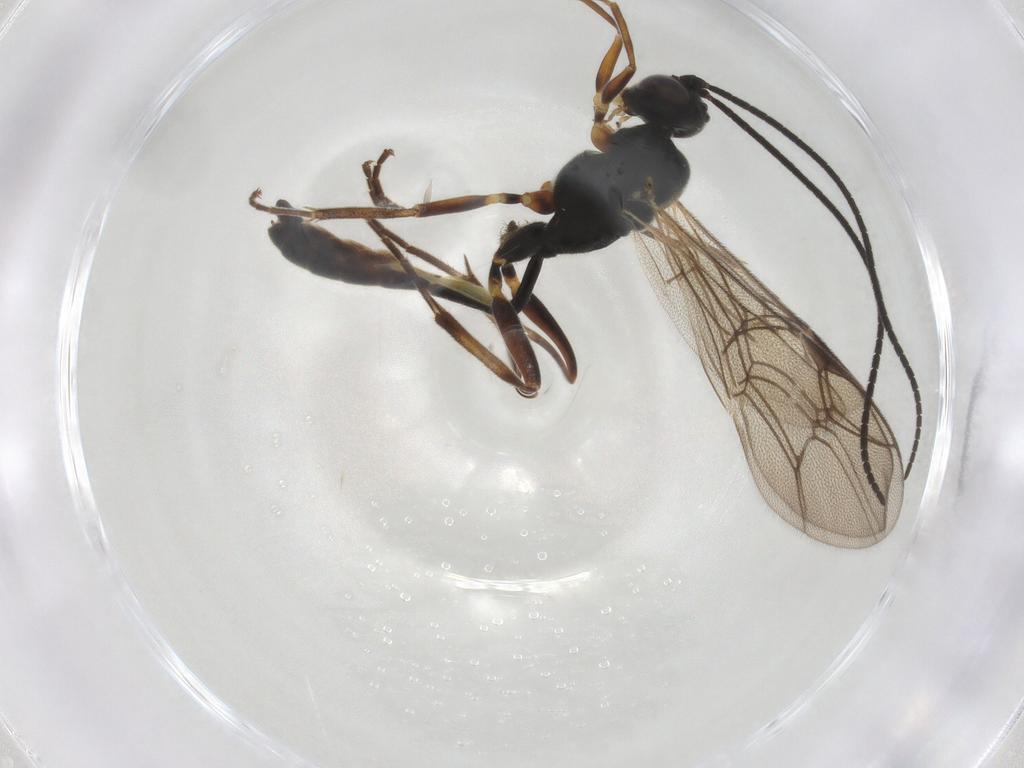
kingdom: Animalia
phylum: Arthropoda
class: Insecta
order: Hymenoptera
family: Ichneumonidae
